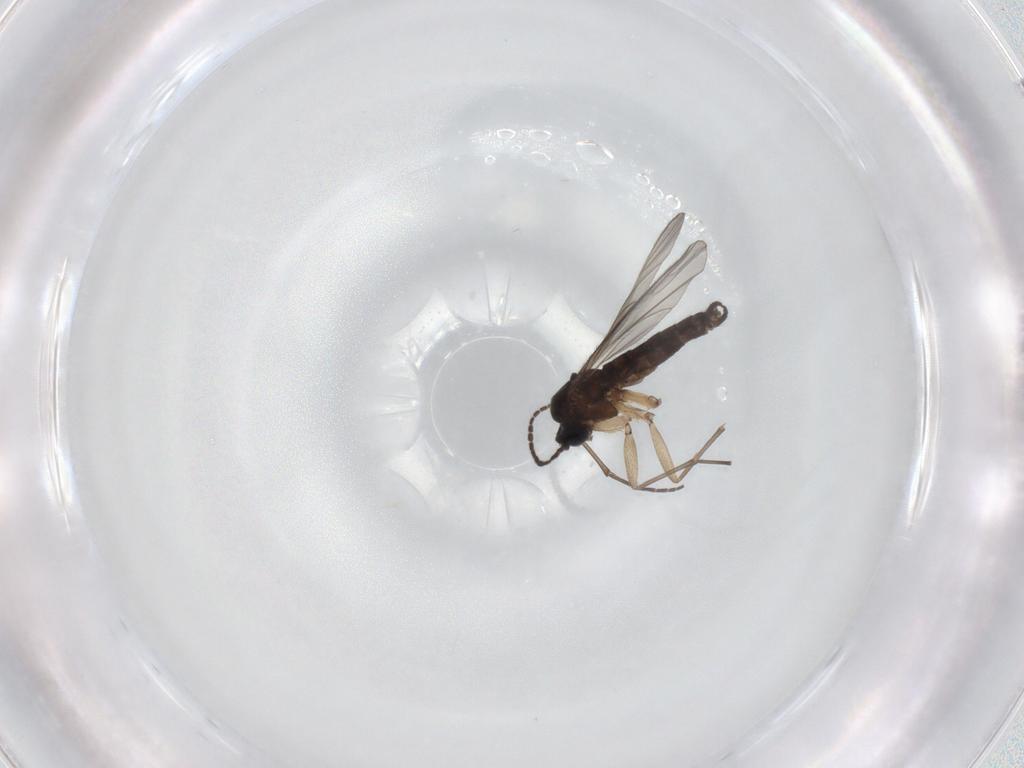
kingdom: Animalia
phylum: Arthropoda
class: Insecta
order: Diptera
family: Sciaridae
